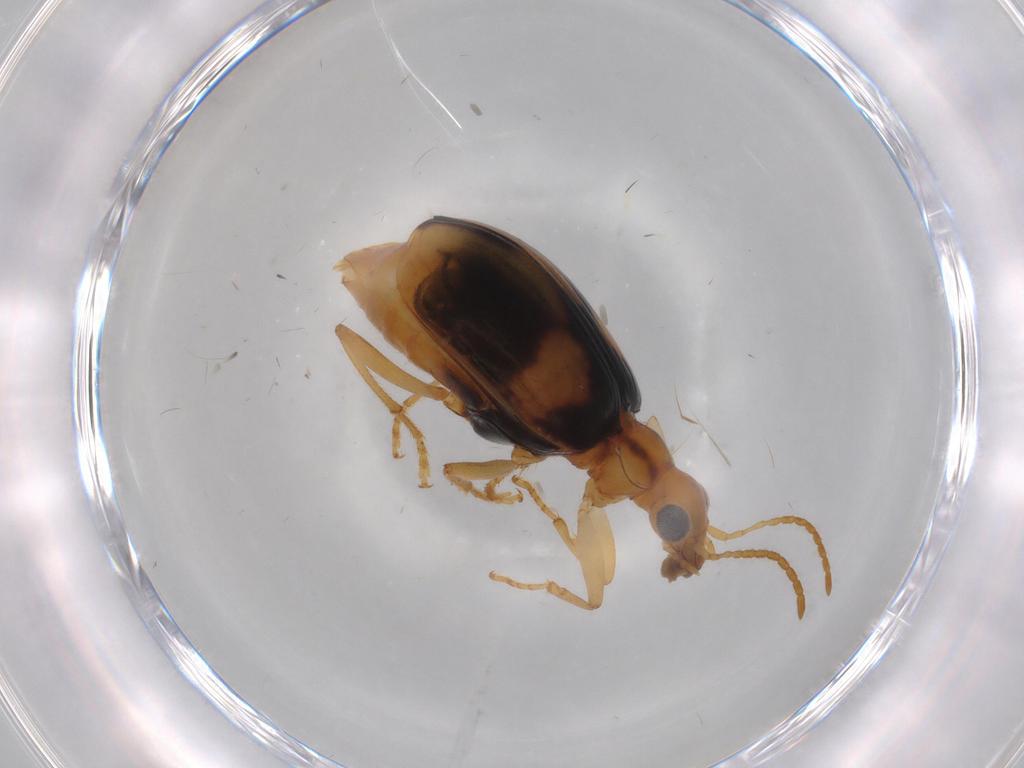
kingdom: Animalia
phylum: Arthropoda
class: Insecta
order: Coleoptera
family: Carabidae
